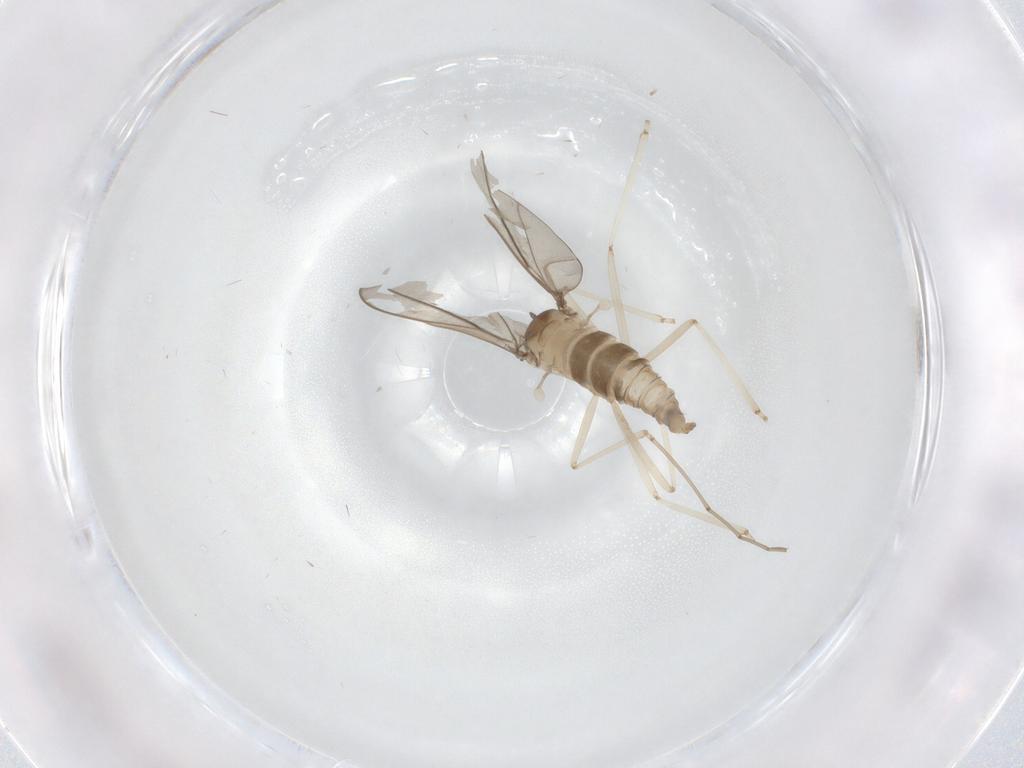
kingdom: Animalia
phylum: Arthropoda
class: Insecta
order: Diptera
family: Cecidomyiidae
